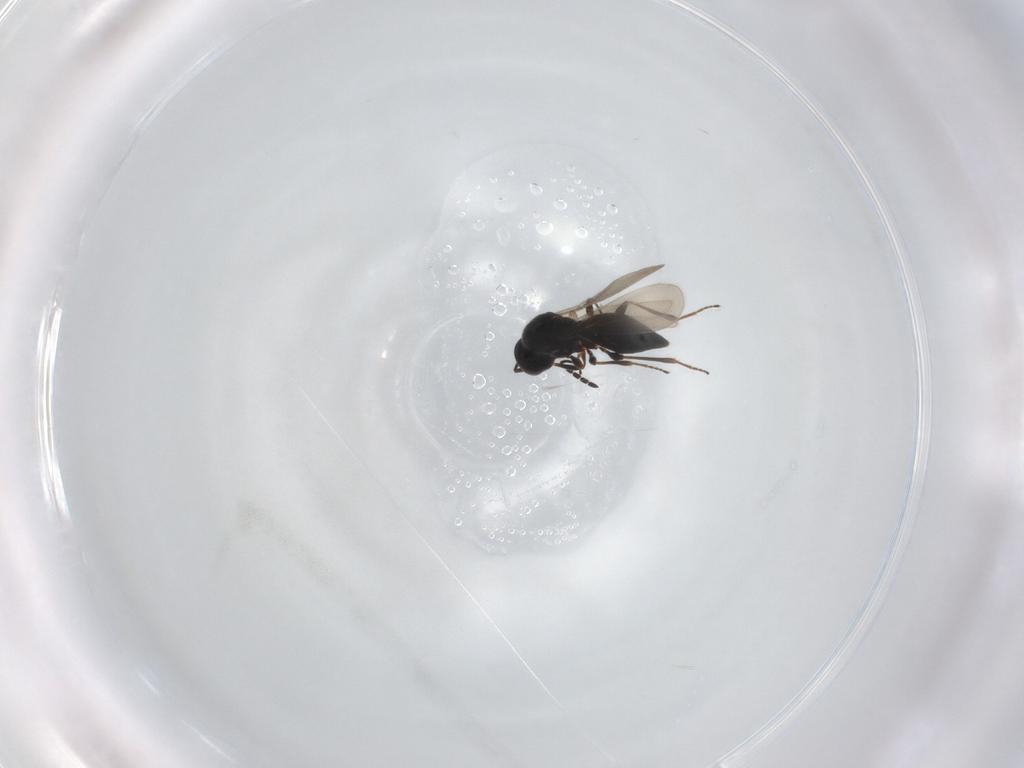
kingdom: Animalia
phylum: Arthropoda
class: Insecta
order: Hymenoptera
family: Platygastridae
